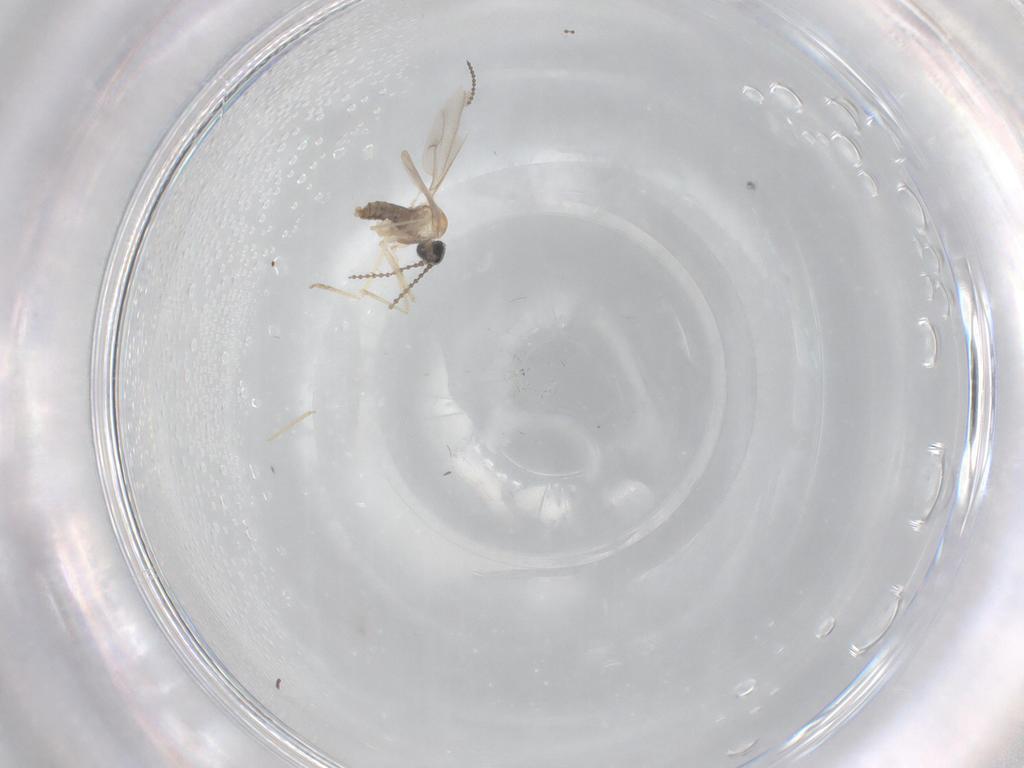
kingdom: Animalia
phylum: Arthropoda
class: Insecta
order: Diptera
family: Cecidomyiidae
